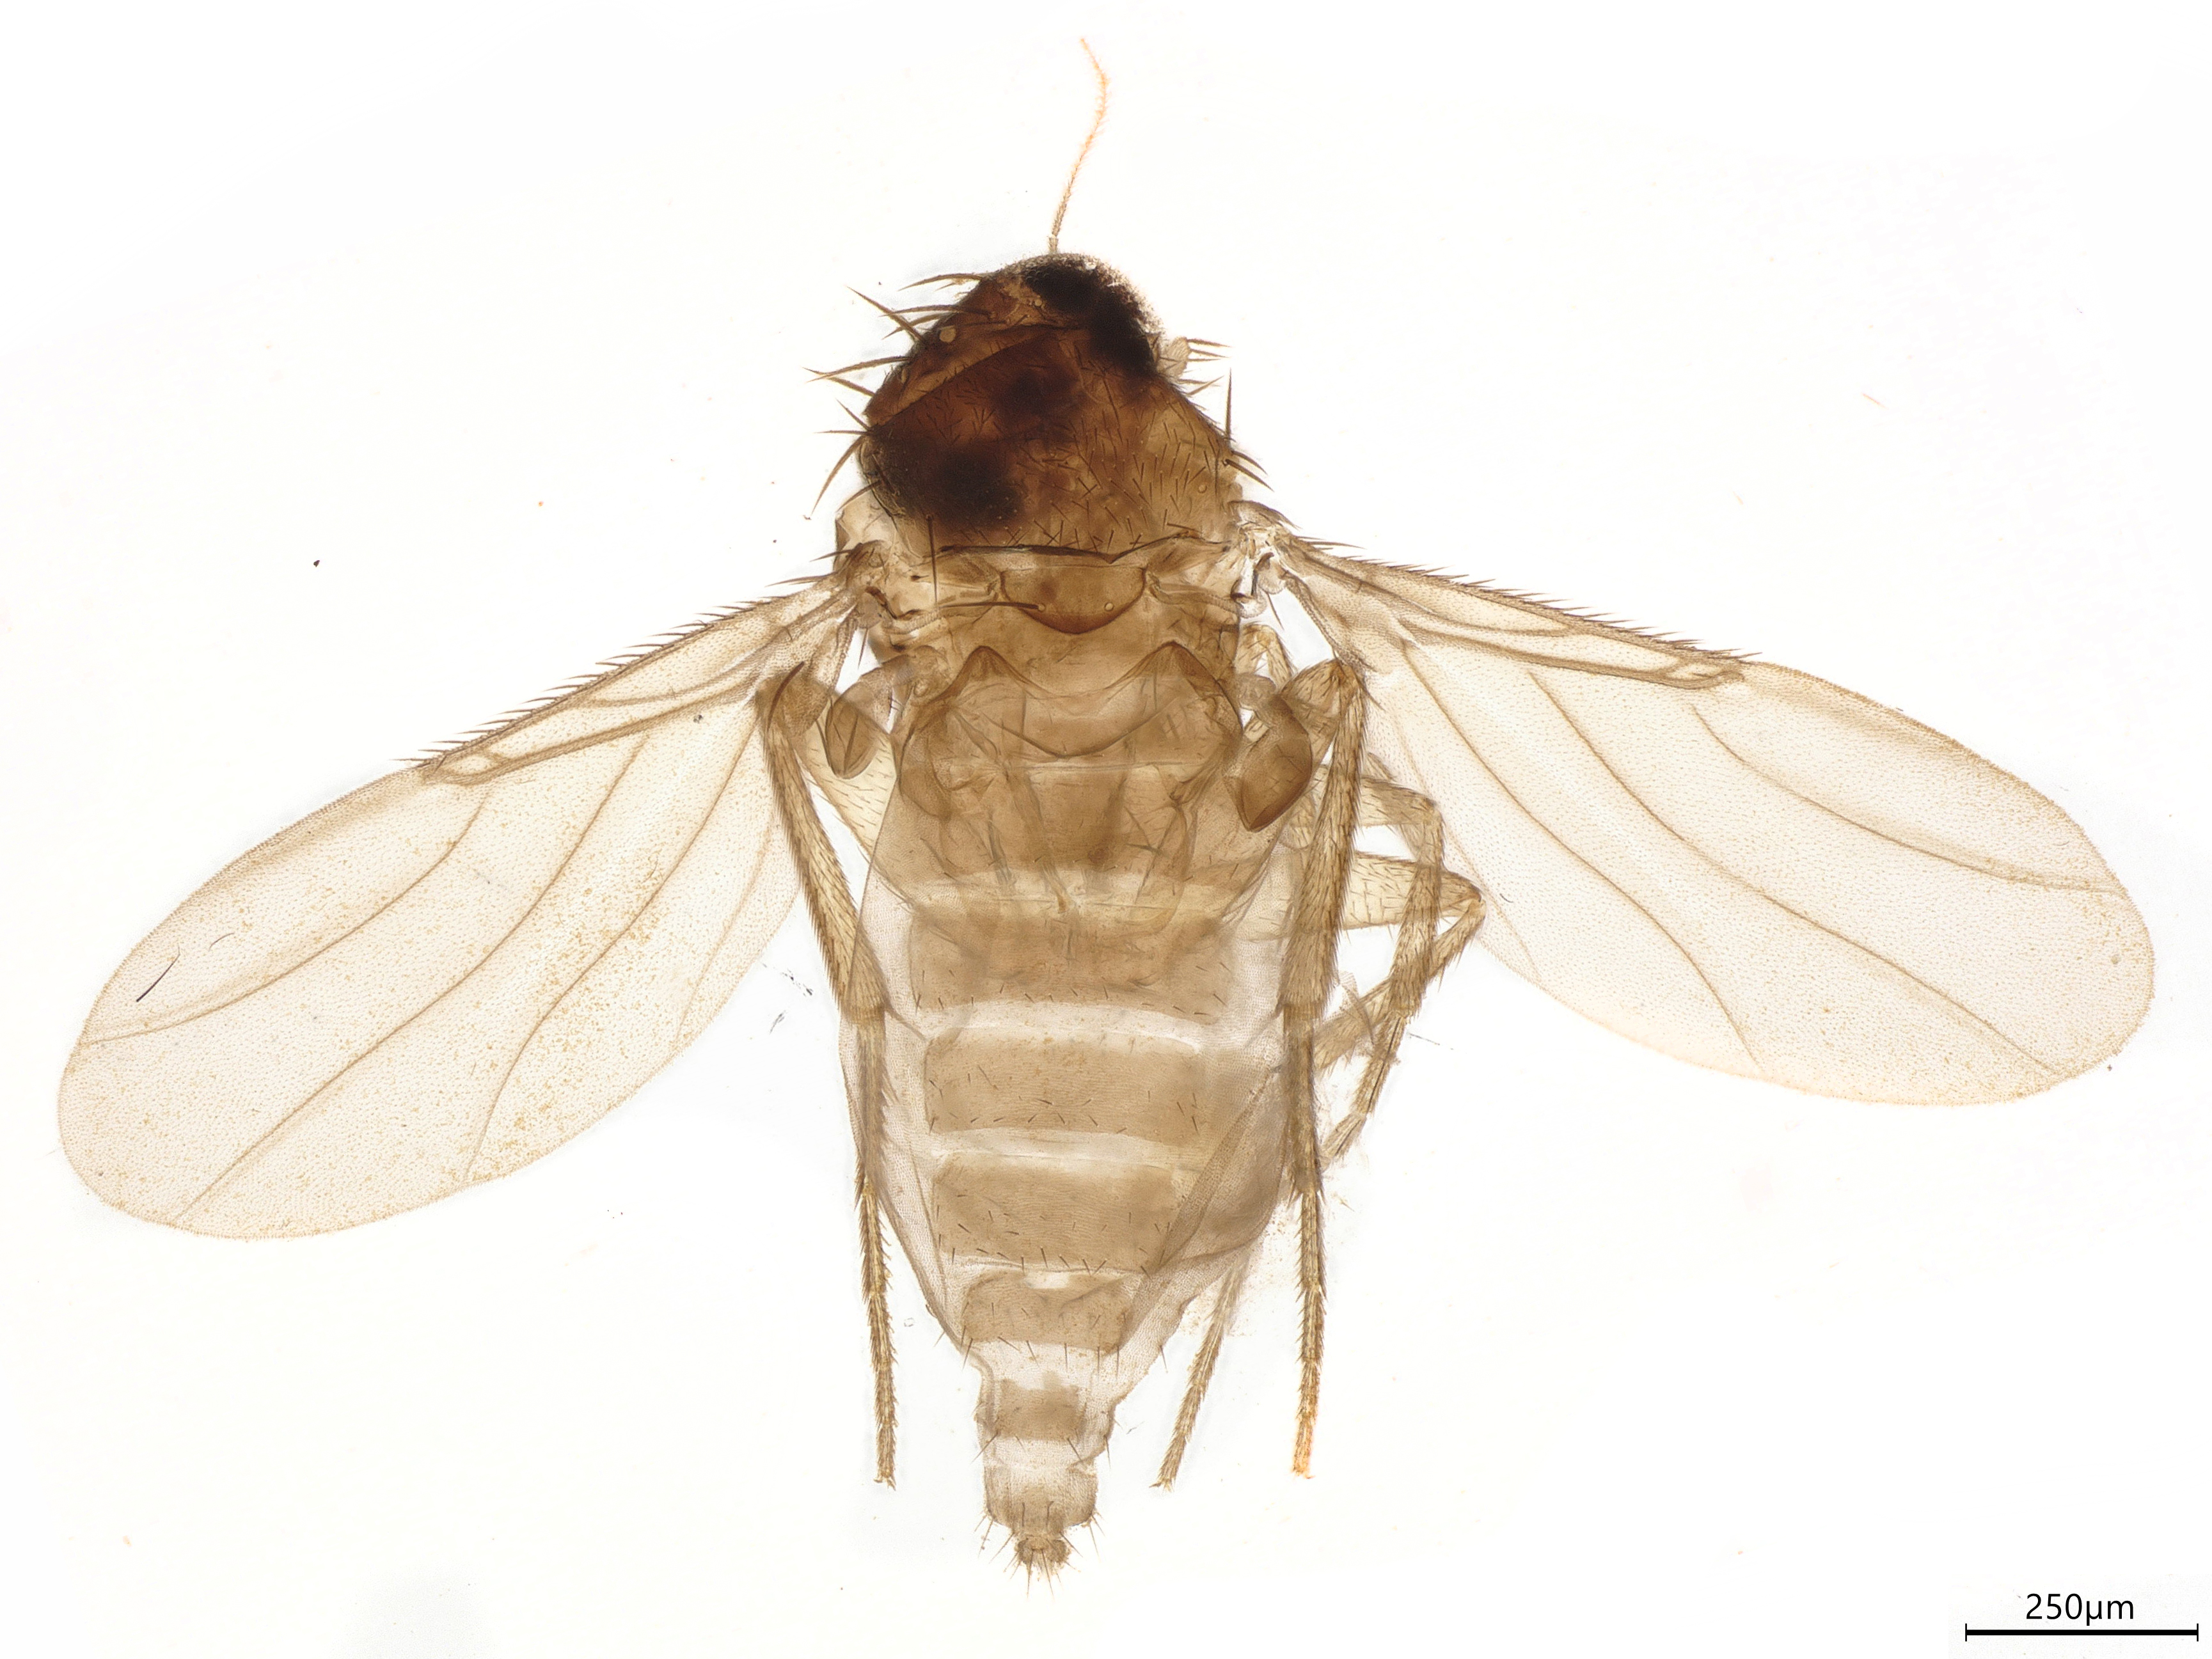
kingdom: Animalia
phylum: Arthropoda
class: Insecta
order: Diptera
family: Phoridae
